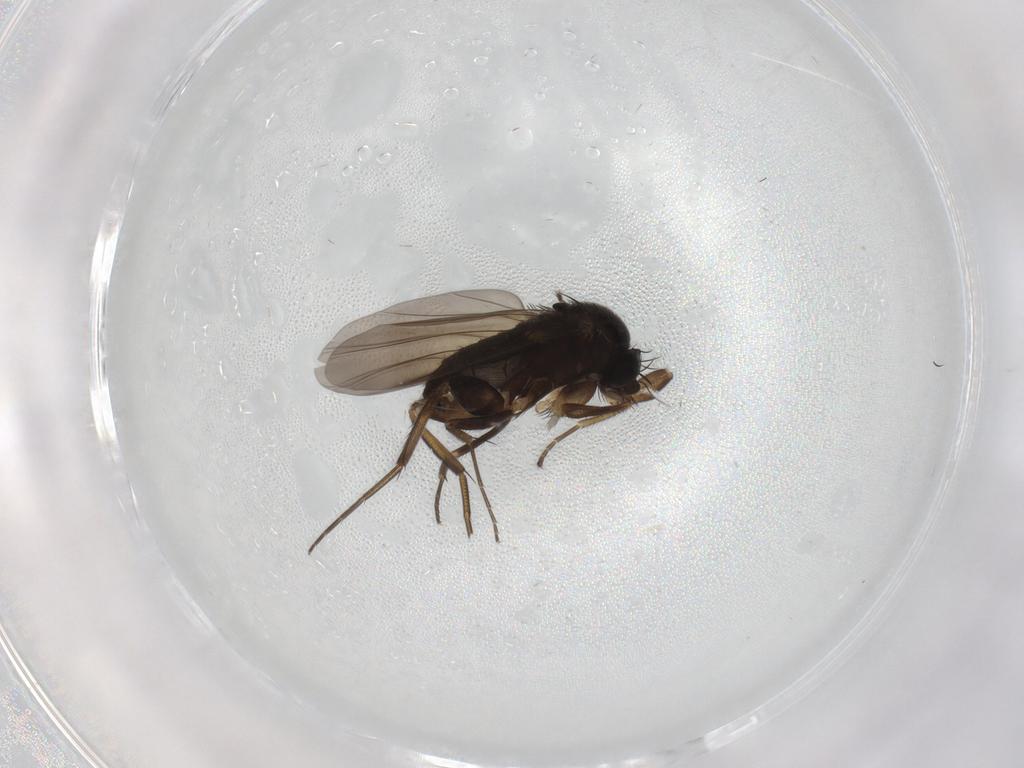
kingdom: Animalia
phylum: Arthropoda
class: Insecta
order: Diptera
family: Phoridae
